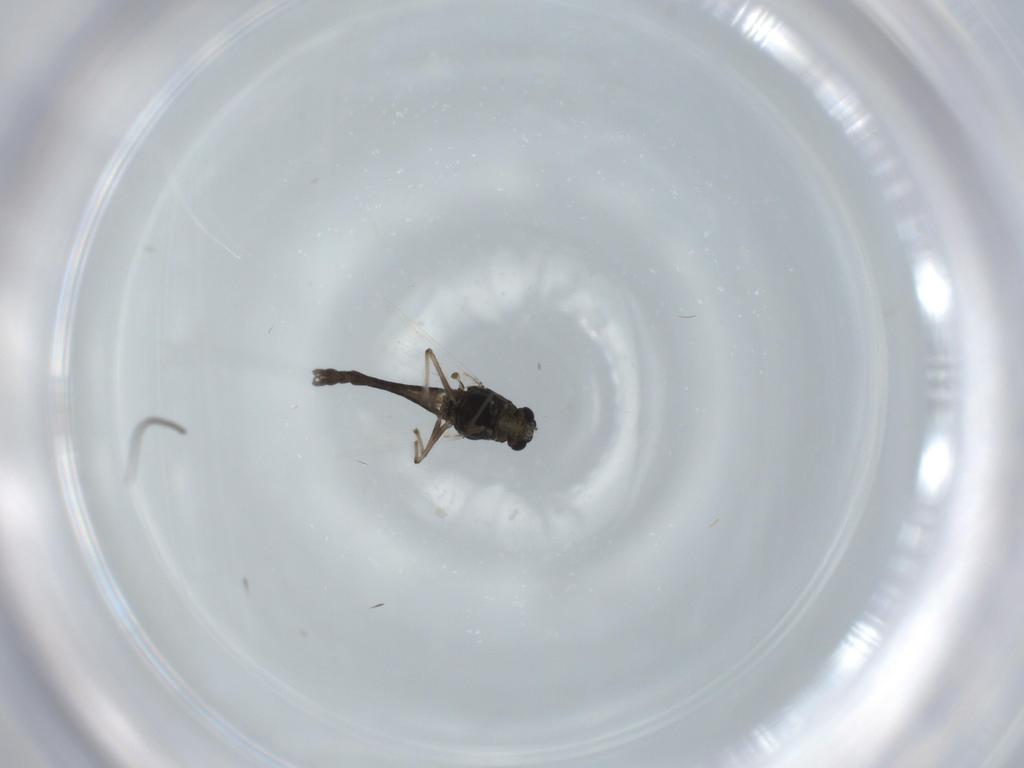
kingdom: Animalia
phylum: Arthropoda
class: Insecta
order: Diptera
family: Chironomidae
